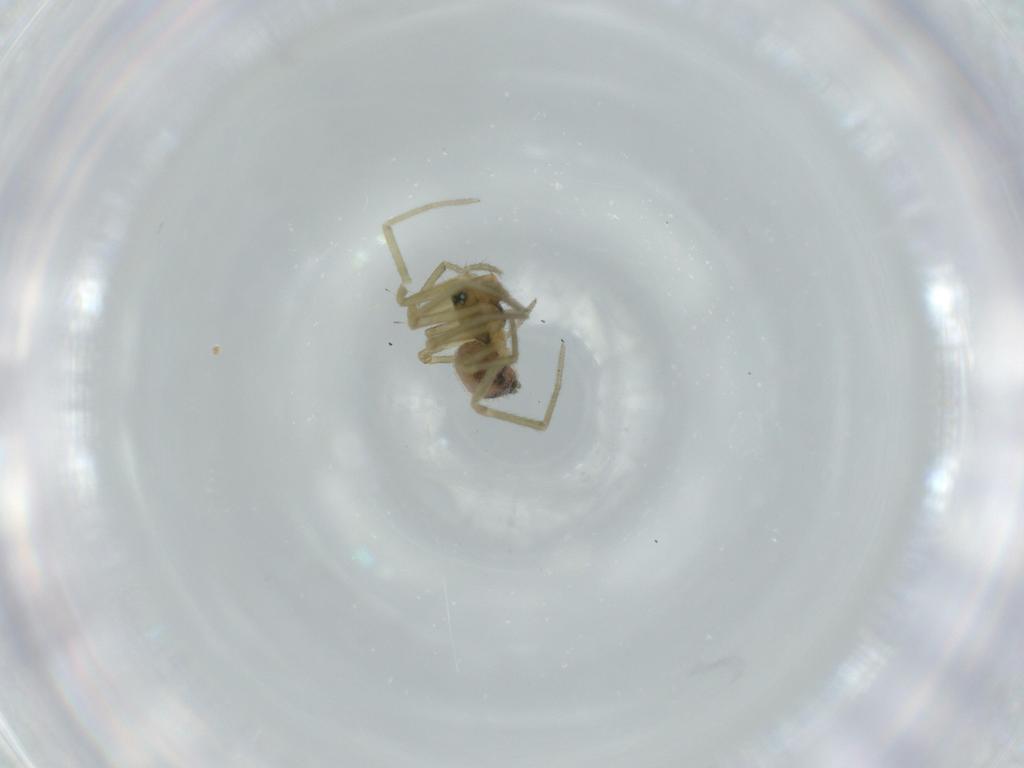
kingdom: Animalia
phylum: Arthropoda
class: Arachnida
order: Araneae
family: Linyphiidae
